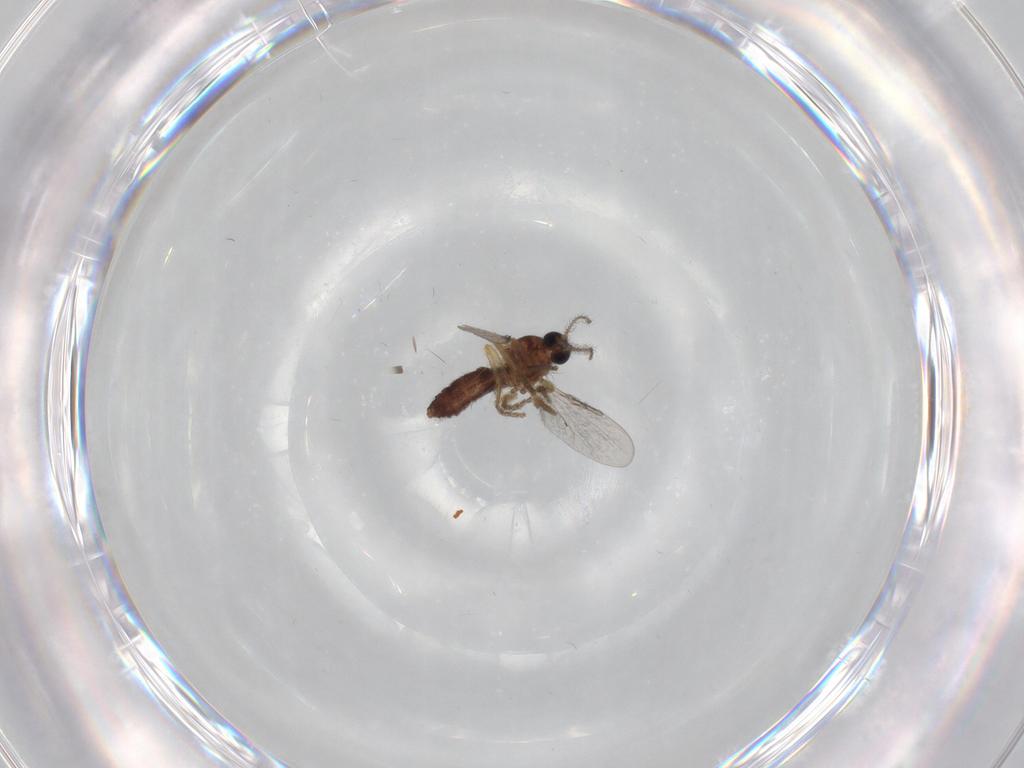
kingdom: Animalia
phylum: Arthropoda
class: Insecta
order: Diptera
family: Ceratopogonidae
